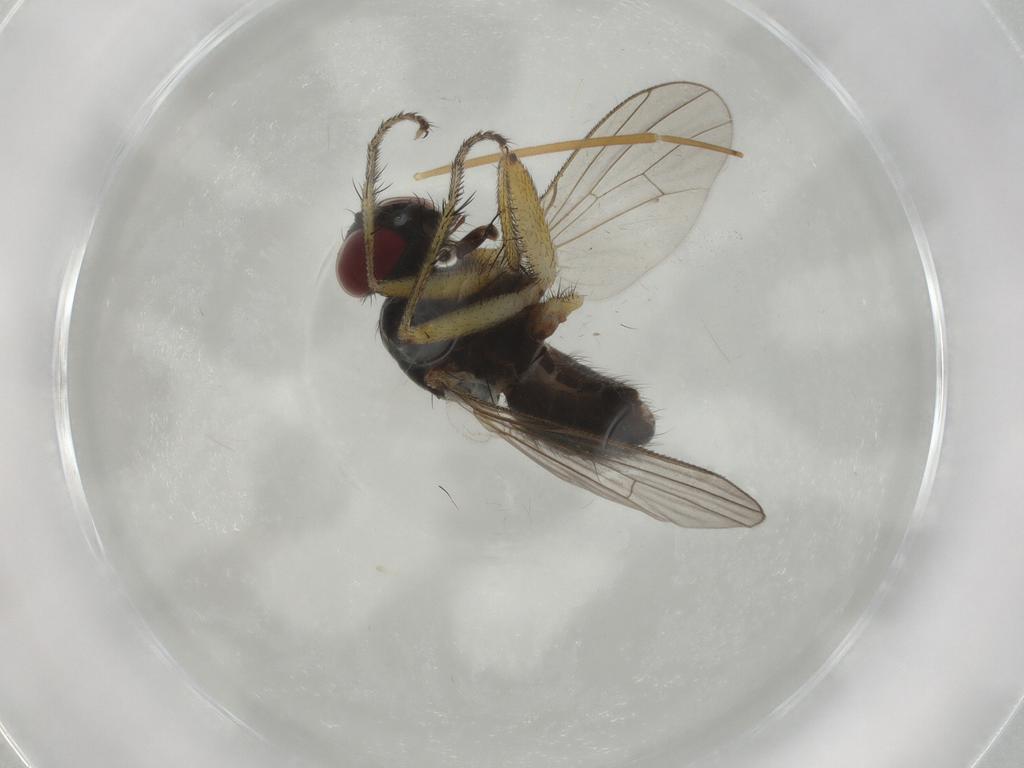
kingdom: Animalia
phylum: Arthropoda
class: Insecta
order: Diptera
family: Muscidae
